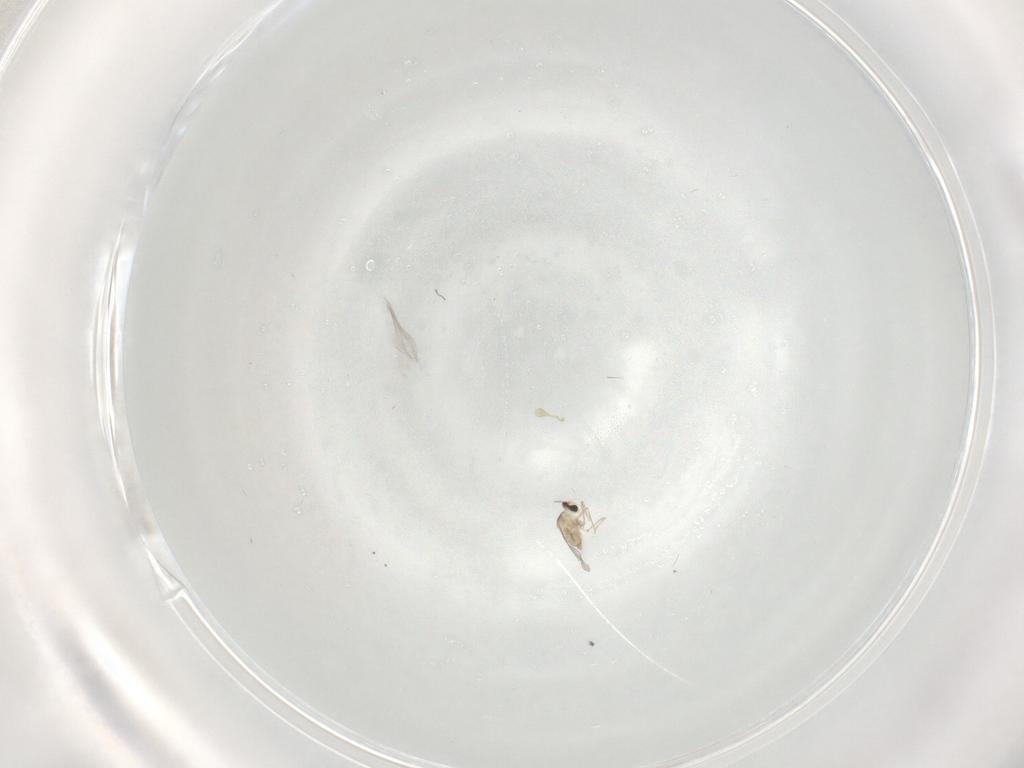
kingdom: Animalia
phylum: Arthropoda
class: Insecta
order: Diptera
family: Cecidomyiidae
